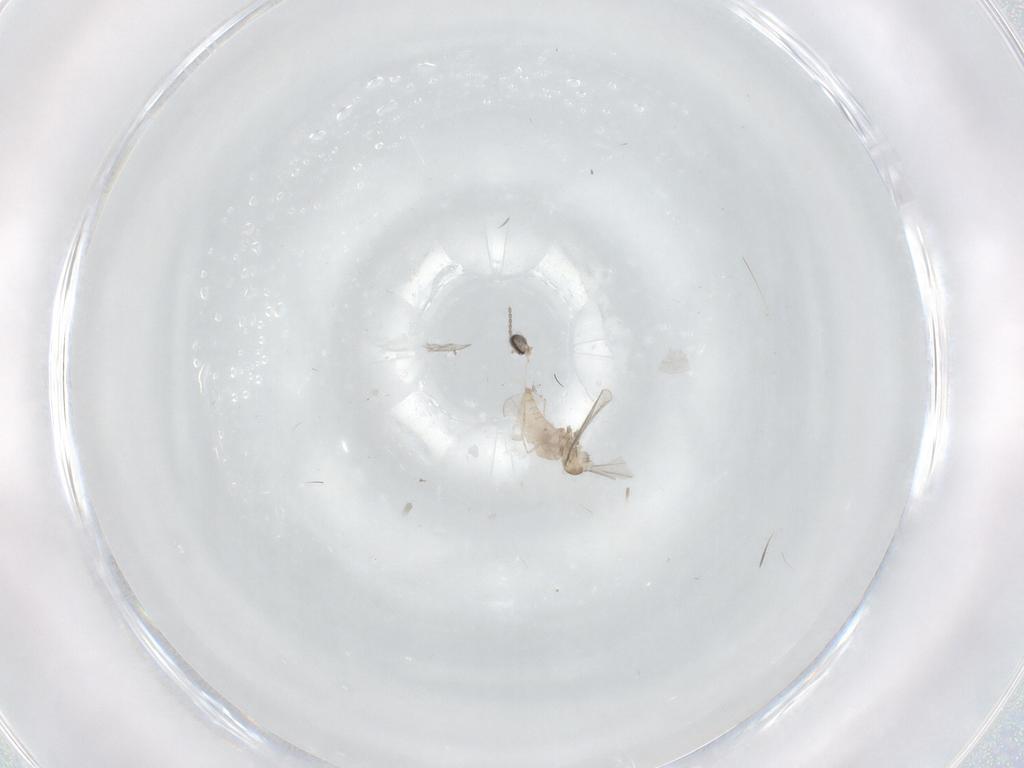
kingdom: Animalia
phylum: Arthropoda
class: Insecta
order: Diptera
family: Cecidomyiidae
